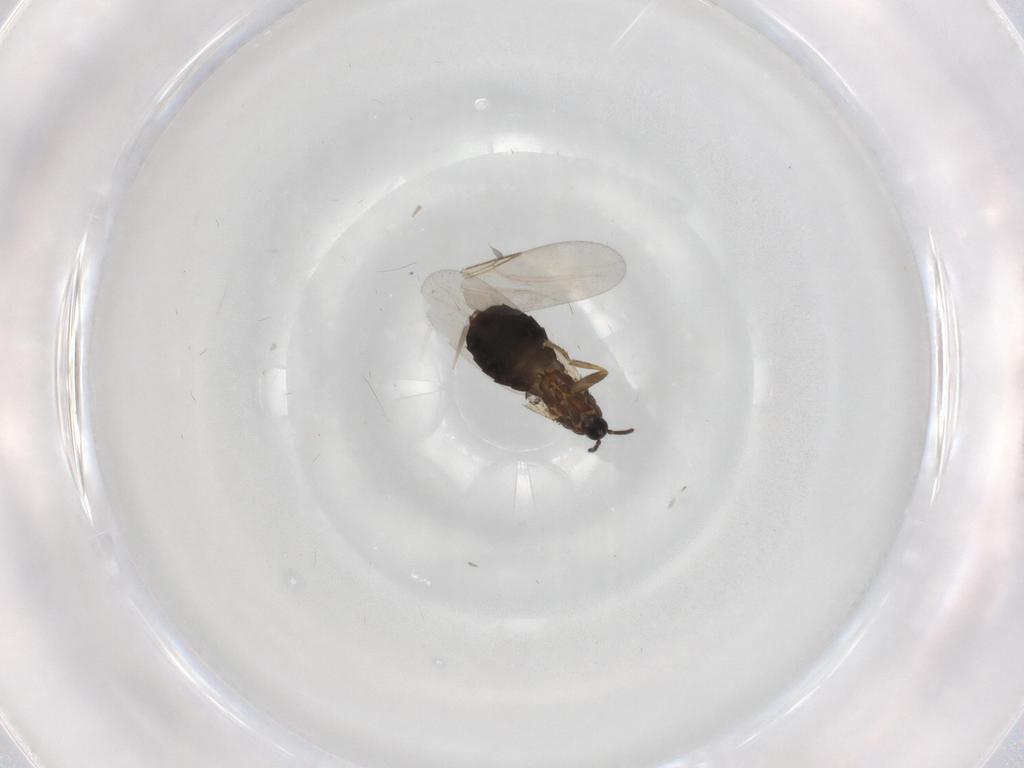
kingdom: Animalia
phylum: Arthropoda
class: Insecta
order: Diptera
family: Scatopsidae
